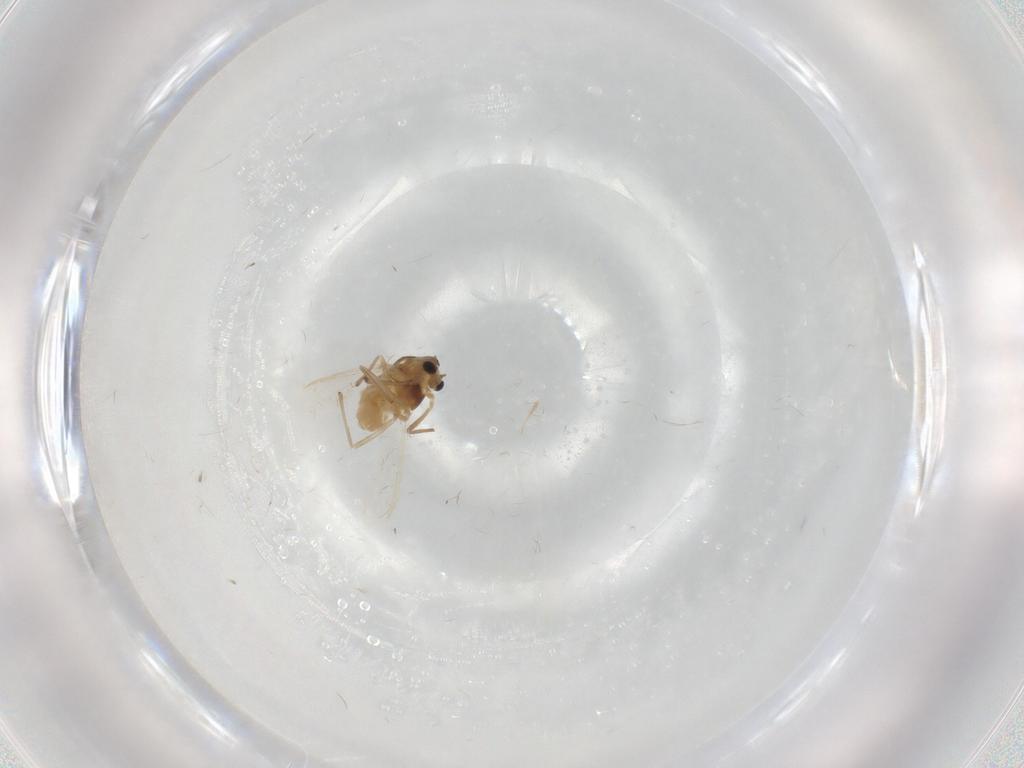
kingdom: Animalia
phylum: Arthropoda
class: Insecta
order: Diptera
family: Chironomidae
